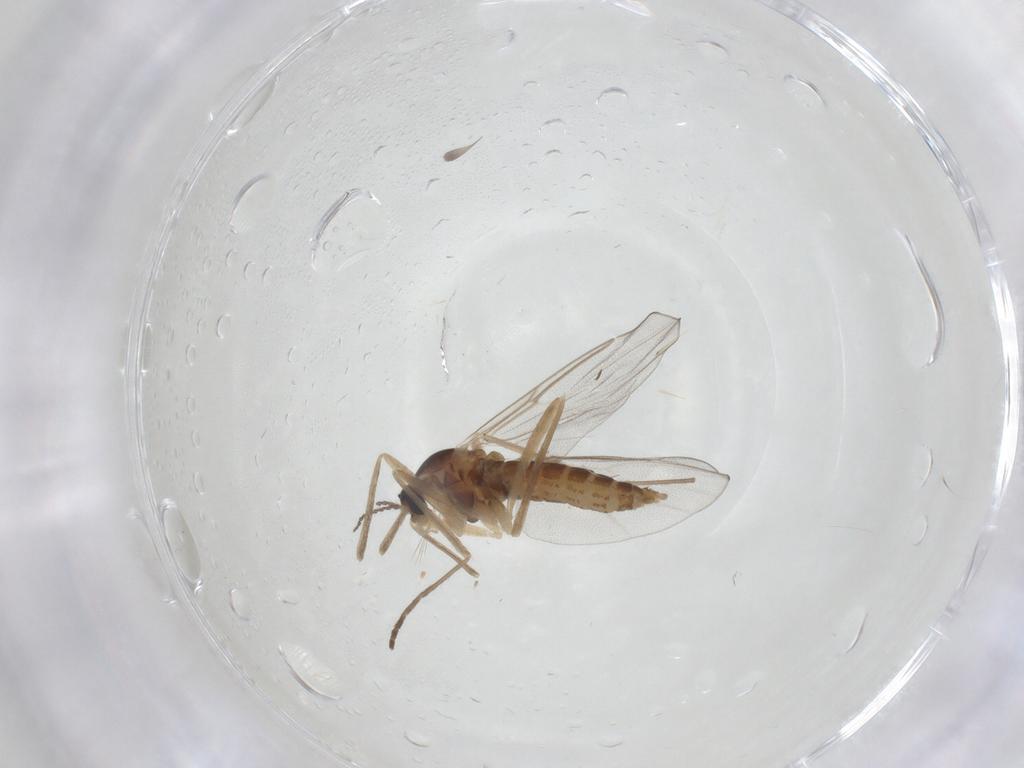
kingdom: Animalia
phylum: Arthropoda
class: Insecta
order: Diptera
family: Cecidomyiidae
